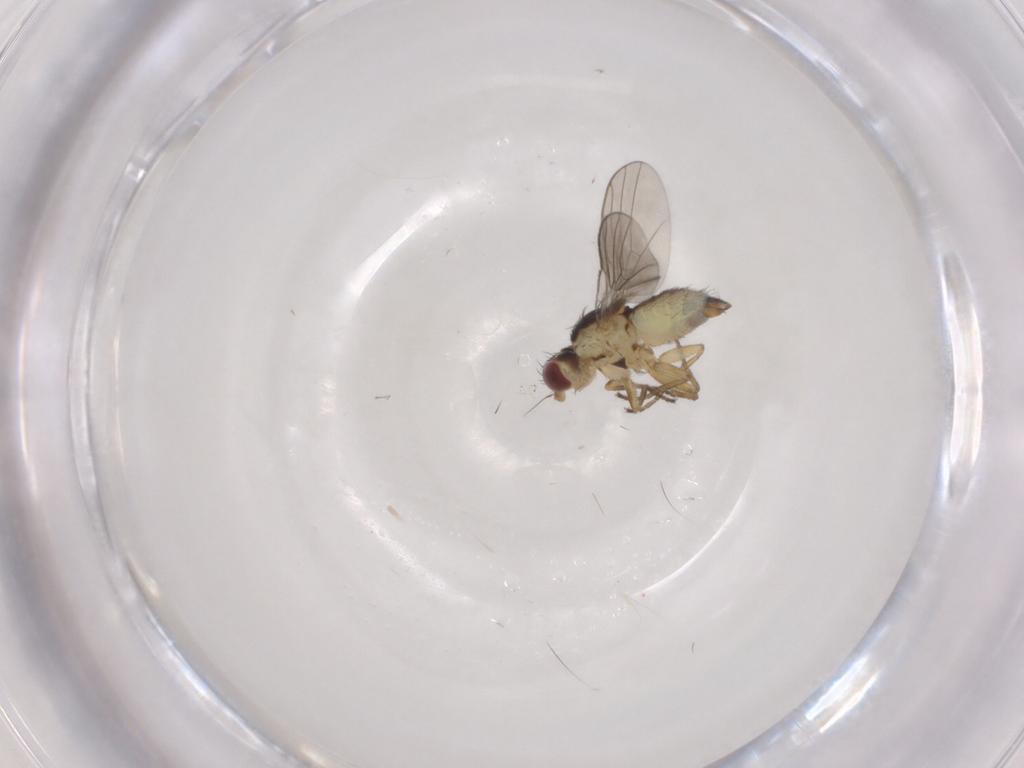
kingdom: Animalia
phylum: Arthropoda
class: Insecta
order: Diptera
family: Agromyzidae
